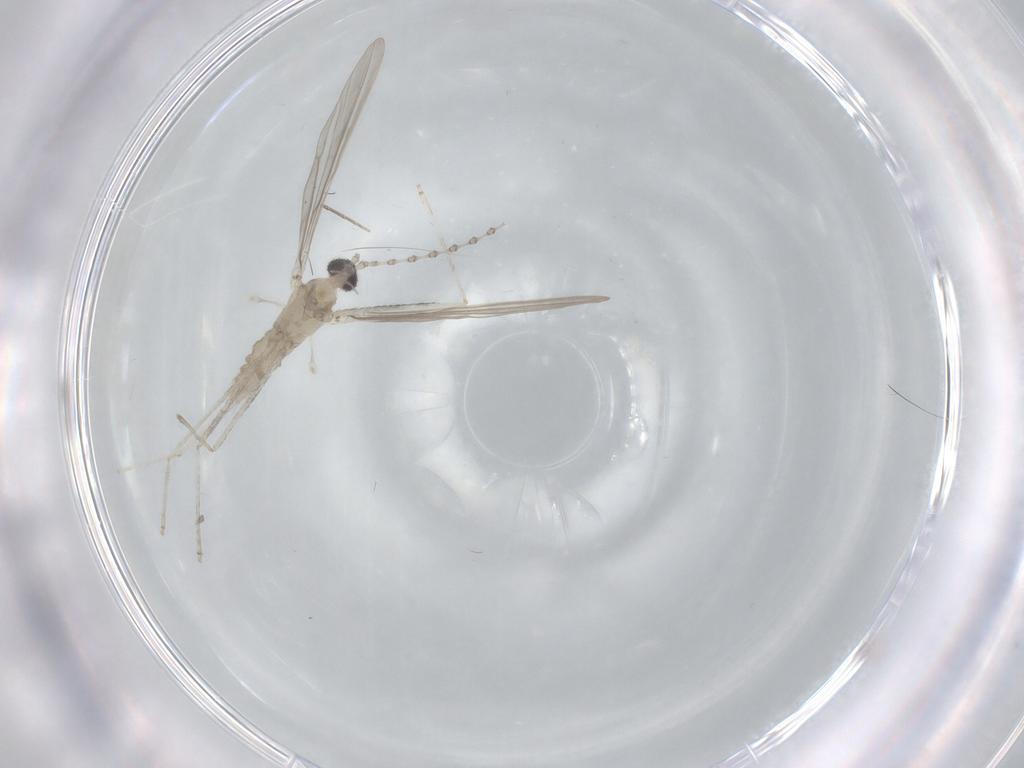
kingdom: Animalia
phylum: Arthropoda
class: Insecta
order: Diptera
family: Cecidomyiidae
